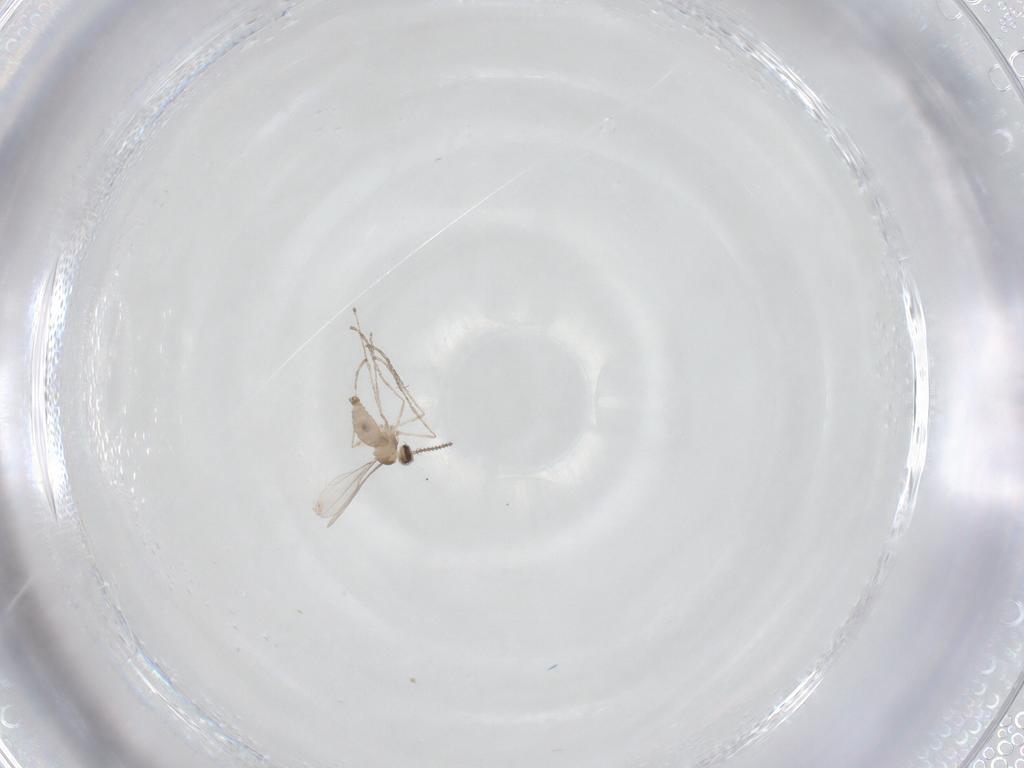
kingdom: Animalia
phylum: Arthropoda
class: Insecta
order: Diptera
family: Cecidomyiidae
